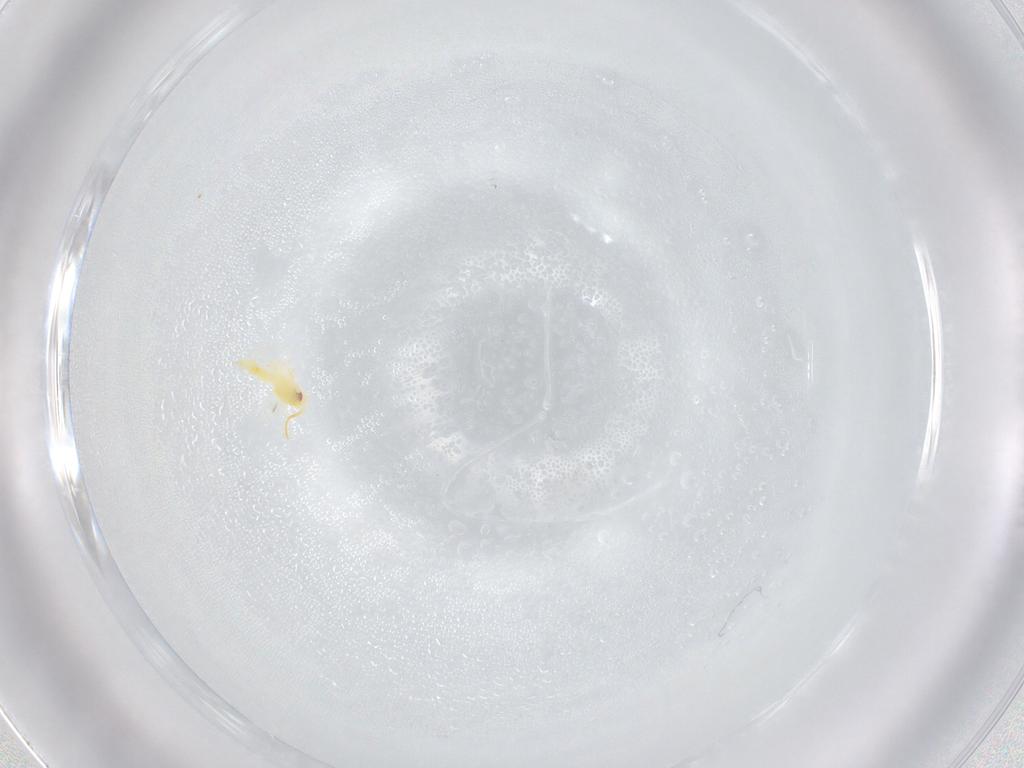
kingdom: Animalia
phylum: Arthropoda
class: Insecta
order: Hemiptera
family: Aleyrodidae
